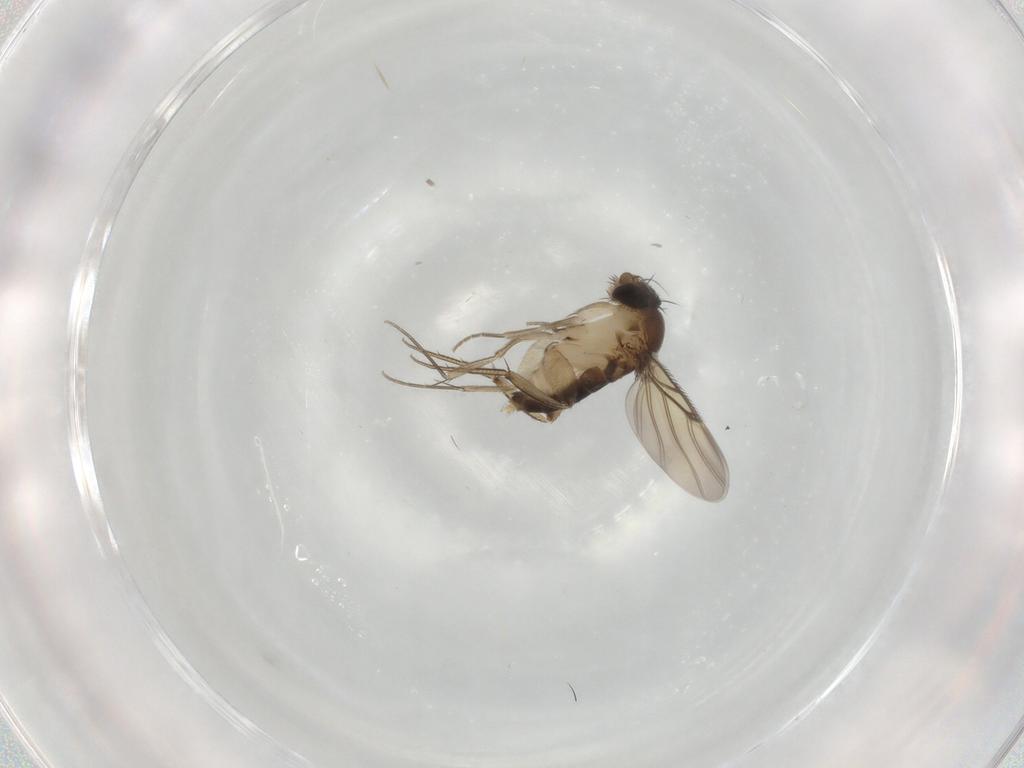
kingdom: Animalia
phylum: Arthropoda
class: Insecta
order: Diptera
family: Phoridae
